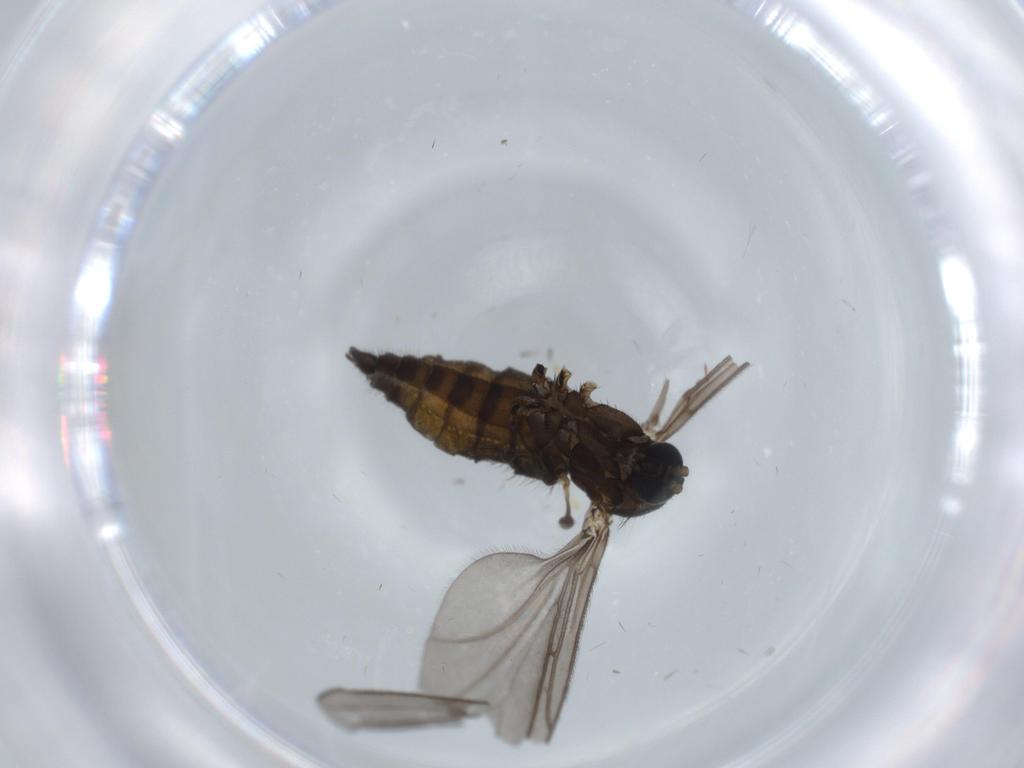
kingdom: Animalia
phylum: Arthropoda
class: Insecta
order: Diptera
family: Sciaridae
